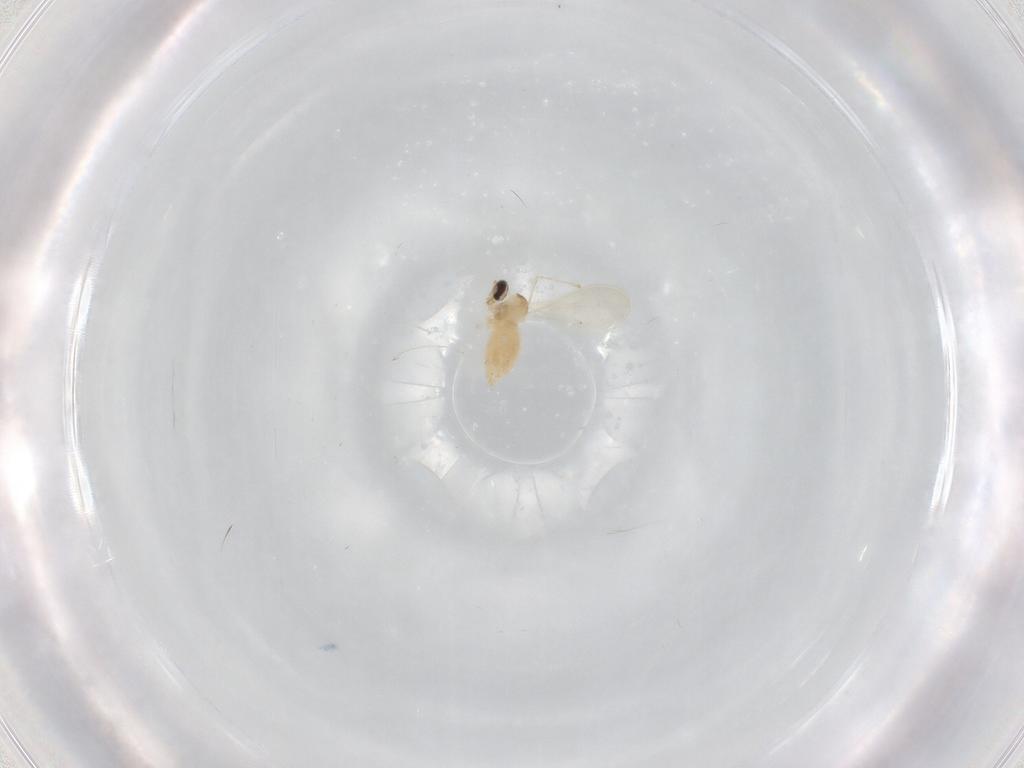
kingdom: Animalia
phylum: Arthropoda
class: Insecta
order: Diptera
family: Cecidomyiidae
